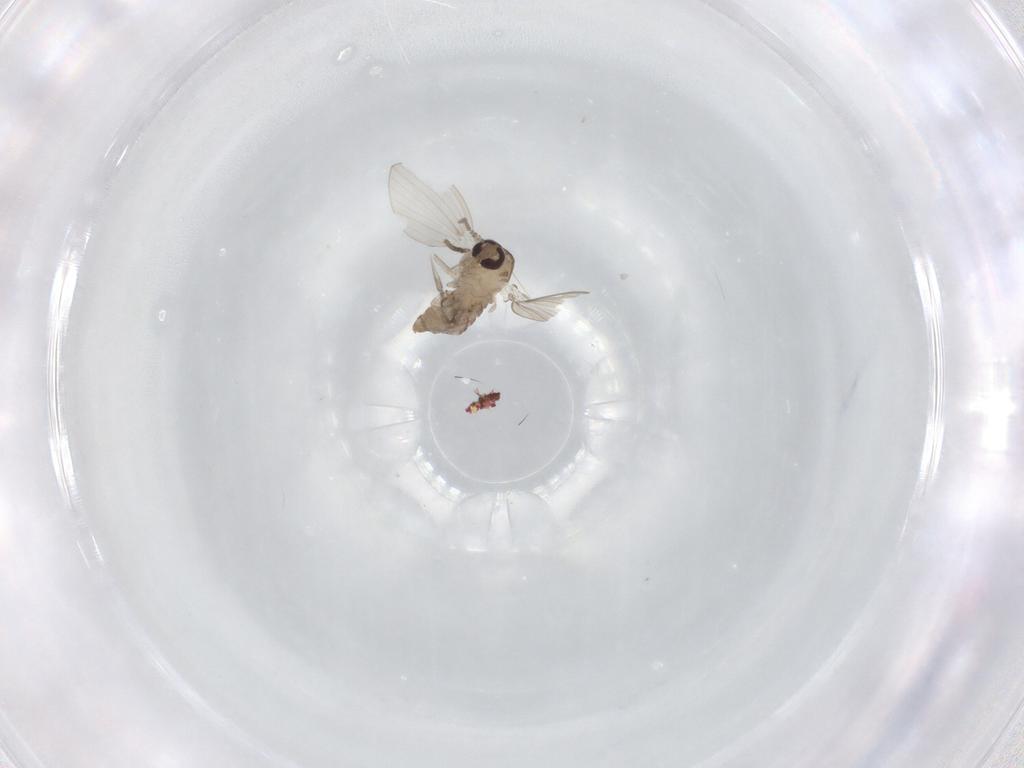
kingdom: Animalia
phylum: Arthropoda
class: Insecta
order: Diptera
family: Psychodidae
